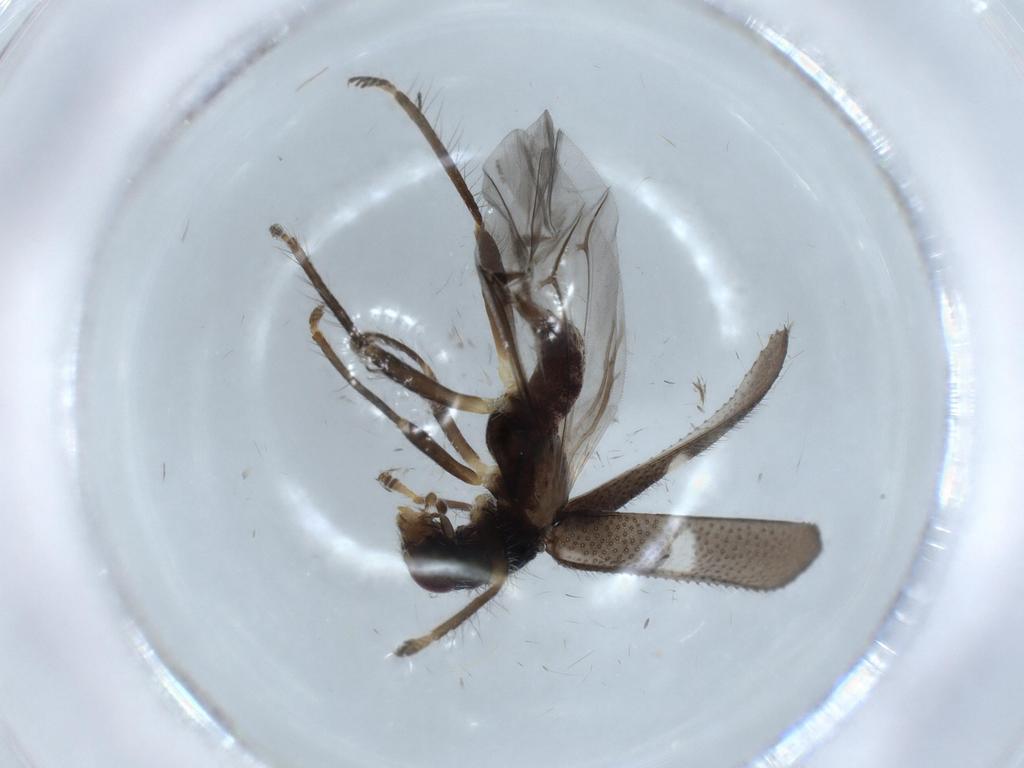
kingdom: Animalia
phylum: Arthropoda
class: Insecta
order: Coleoptera
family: Cleridae
